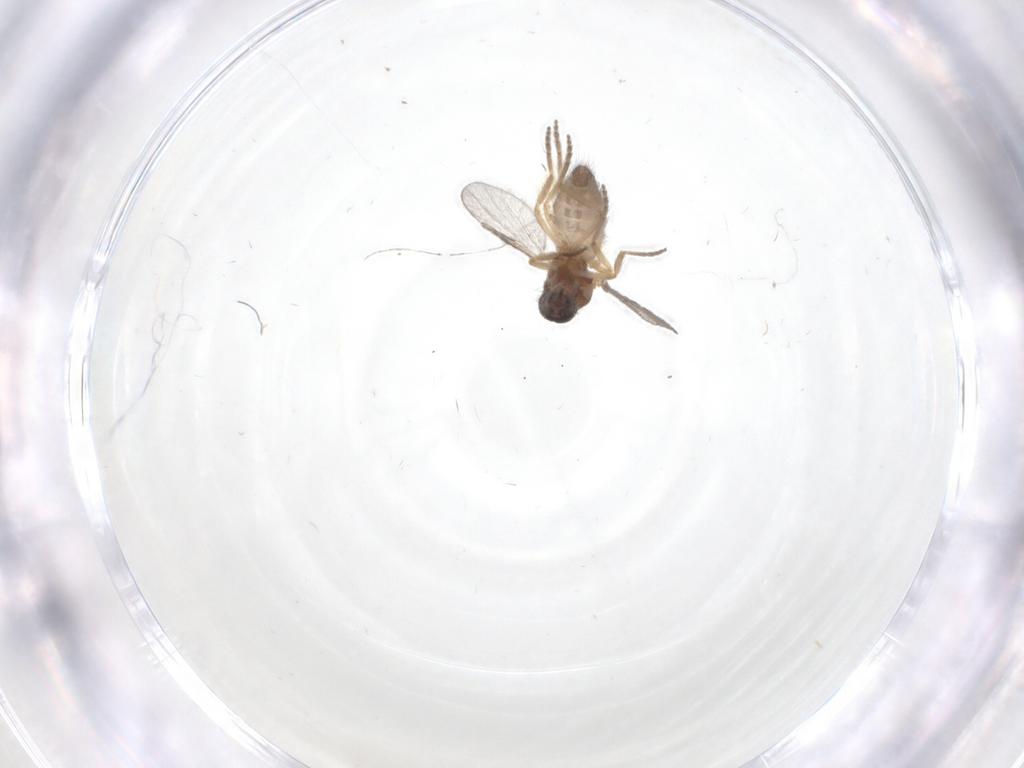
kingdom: Animalia
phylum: Arthropoda
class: Insecta
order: Diptera
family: Ceratopogonidae
